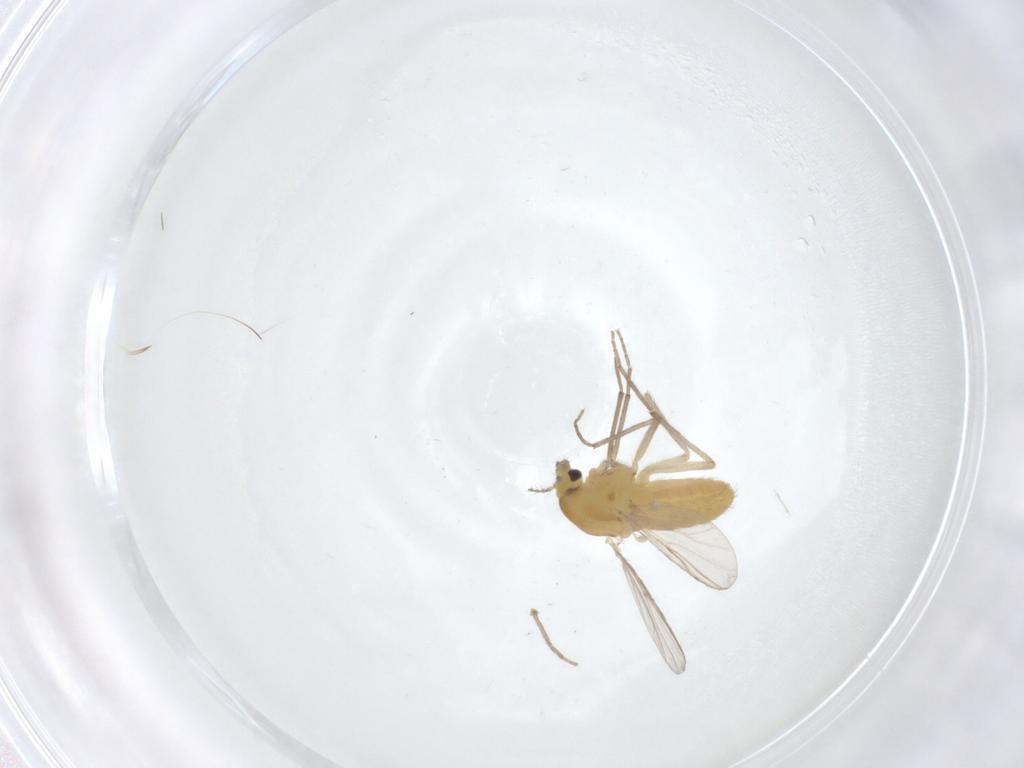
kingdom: Animalia
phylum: Arthropoda
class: Insecta
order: Diptera
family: Chironomidae
